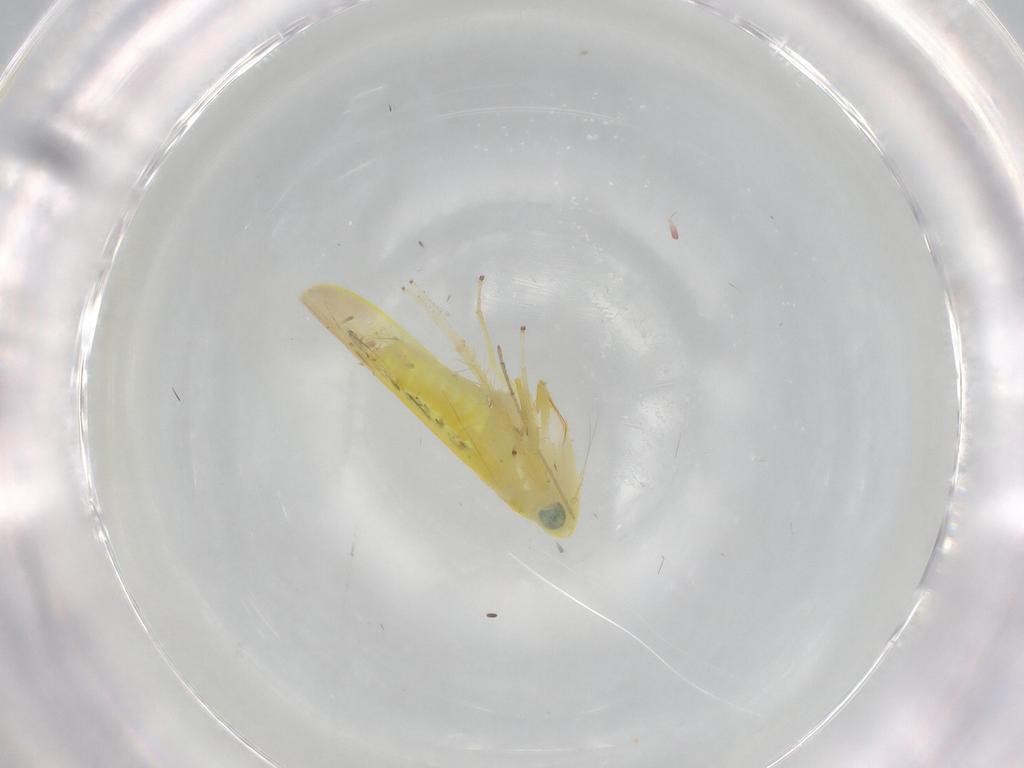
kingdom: Animalia
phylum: Arthropoda
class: Insecta
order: Hemiptera
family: Cicadellidae
